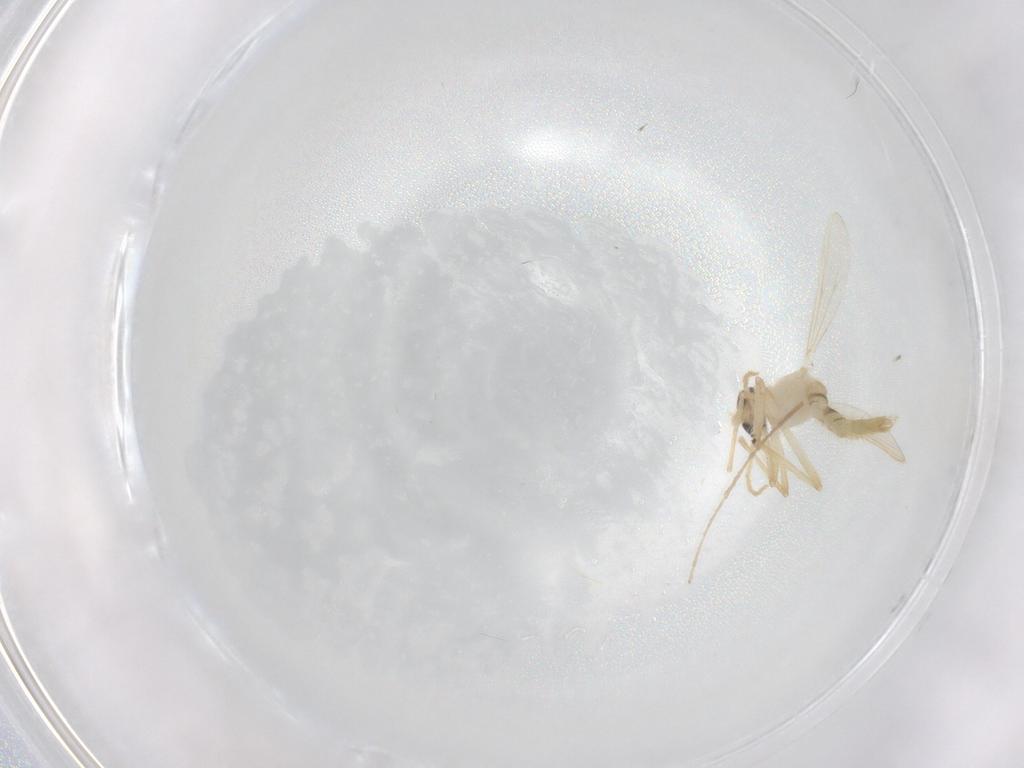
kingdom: Animalia
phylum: Arthropoda
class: Insecta
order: Diptera
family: Chironomidae
